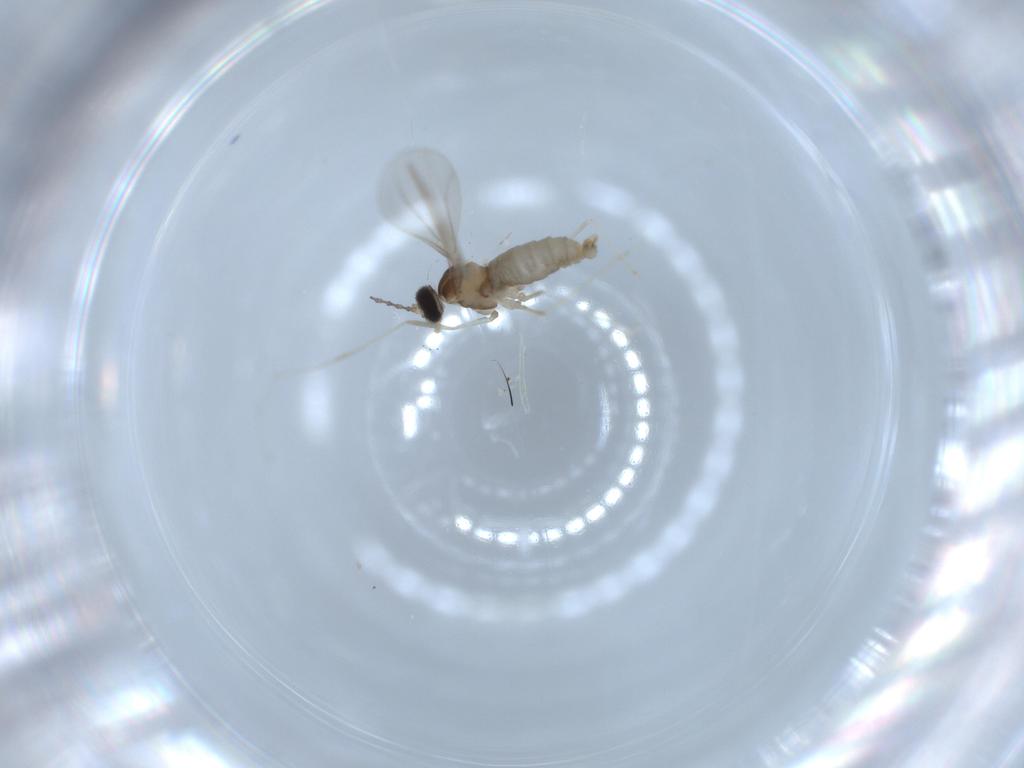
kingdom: Animalia
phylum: Arthropoda
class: Insecta
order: Diptera
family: Cecidomyiidae
